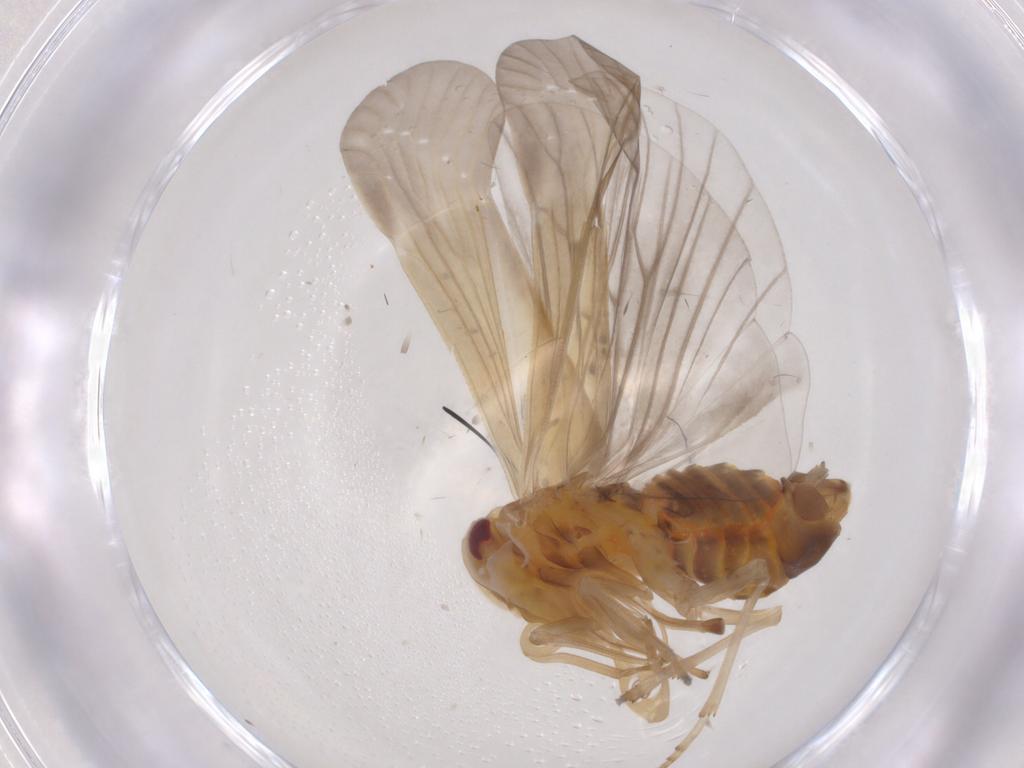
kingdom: Animalia
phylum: Arthropoda
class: Insecta
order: Hemiptera
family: Derbidae
